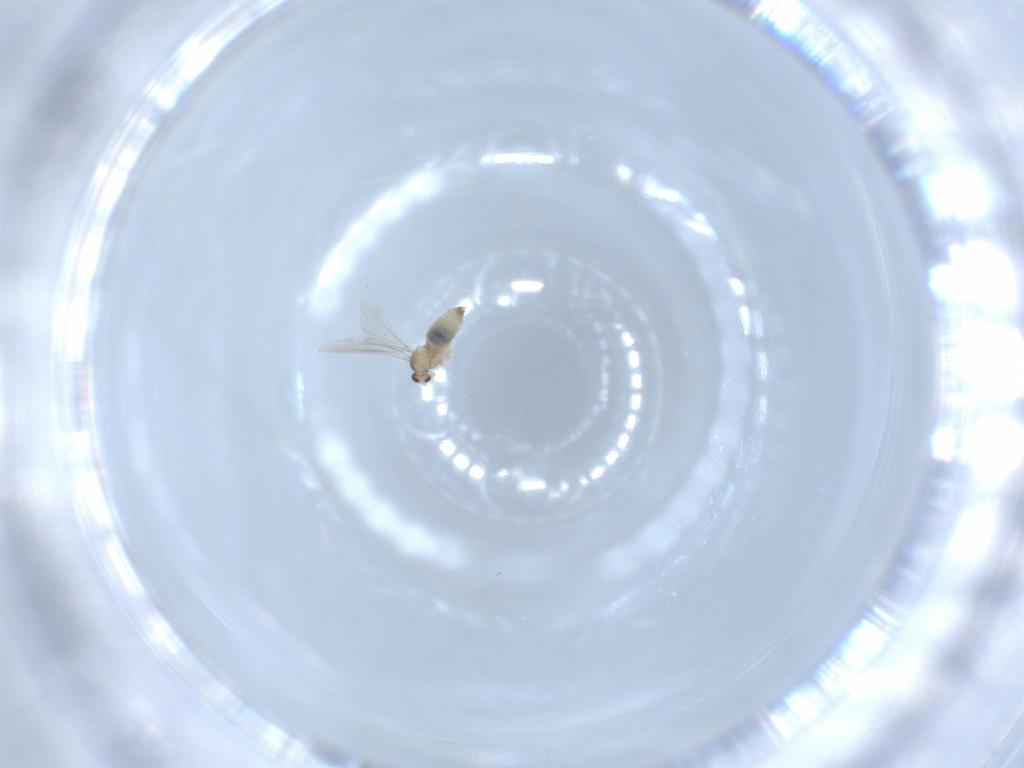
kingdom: Animalia
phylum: Arthropoda
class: Insecta
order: Diptera
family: Cecidomyiidae
